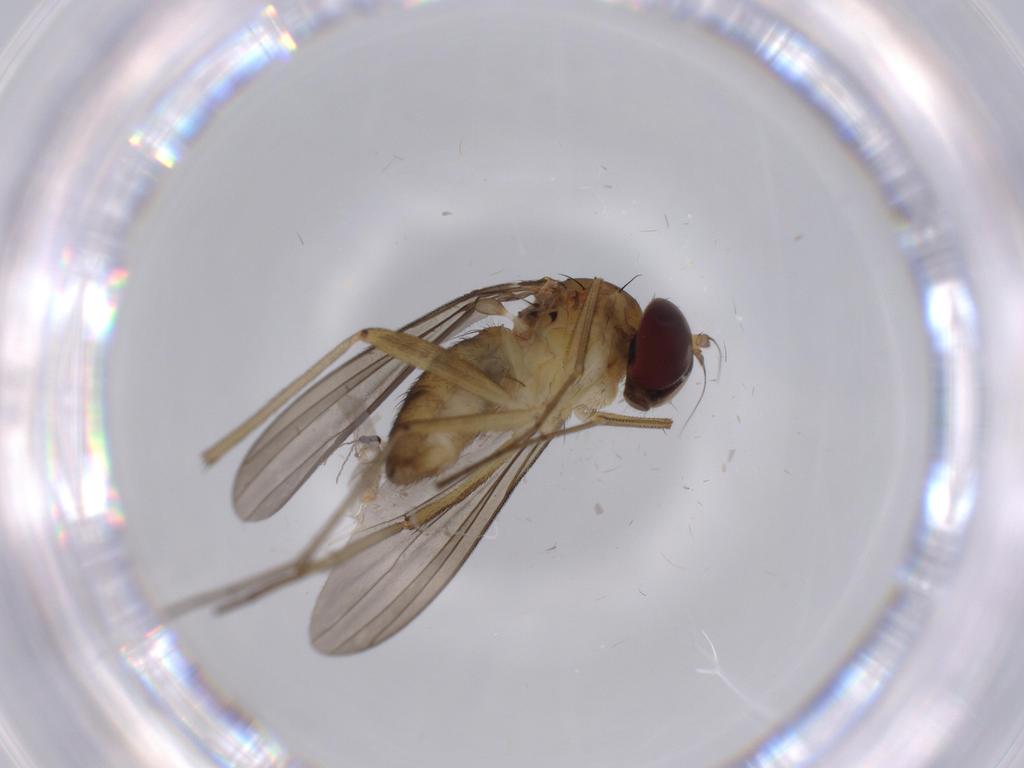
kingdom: Animalia
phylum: Arthropoda
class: Insecta
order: Diptera
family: Cecidomyiidae
